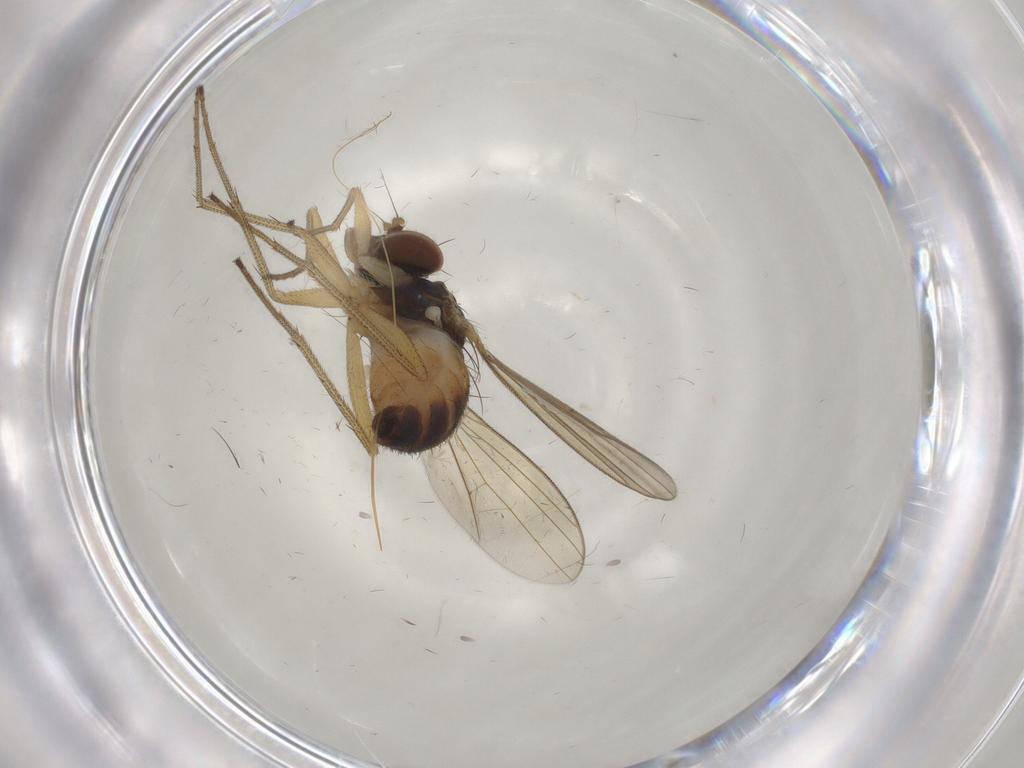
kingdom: Animalia
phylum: Arthropoda
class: Insecta
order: Diptera
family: Dolichopodidae
